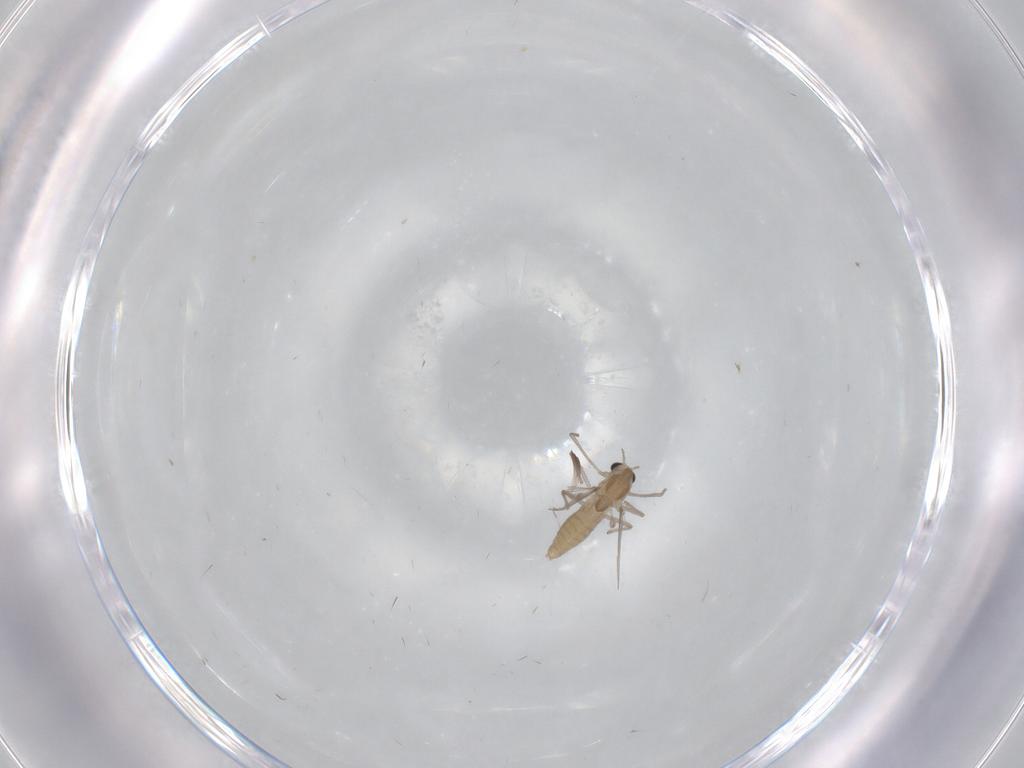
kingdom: Animalia
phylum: Arthropoda
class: Insecta
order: Diptera
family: Chironomidae
